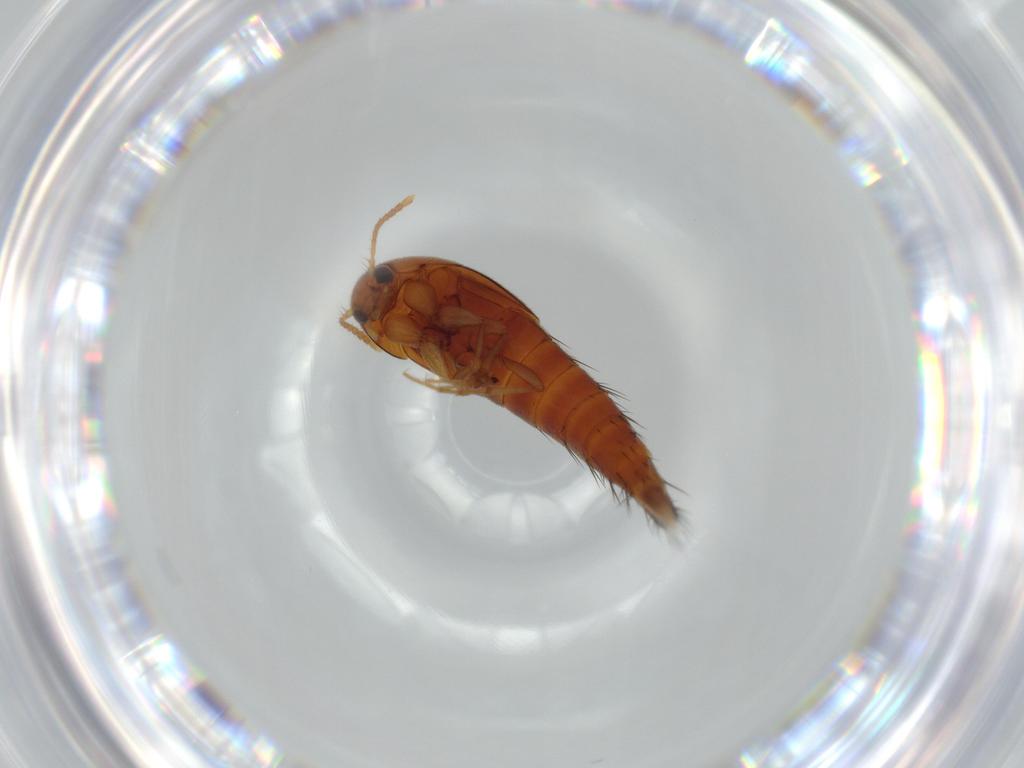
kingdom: Animalia
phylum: Arthropoda
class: Insecta
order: Coleoptera
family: Staphylinidae
